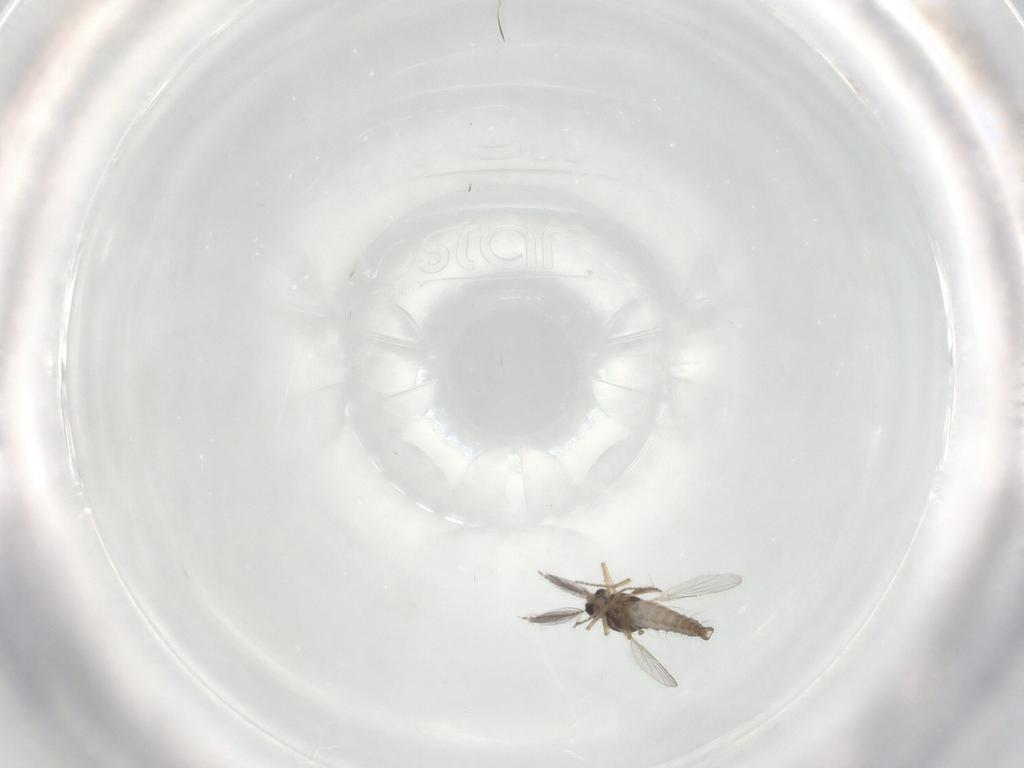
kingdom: Animalia
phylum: Arthropoda
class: Insecta
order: Diptera
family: Ceratopogonidae
